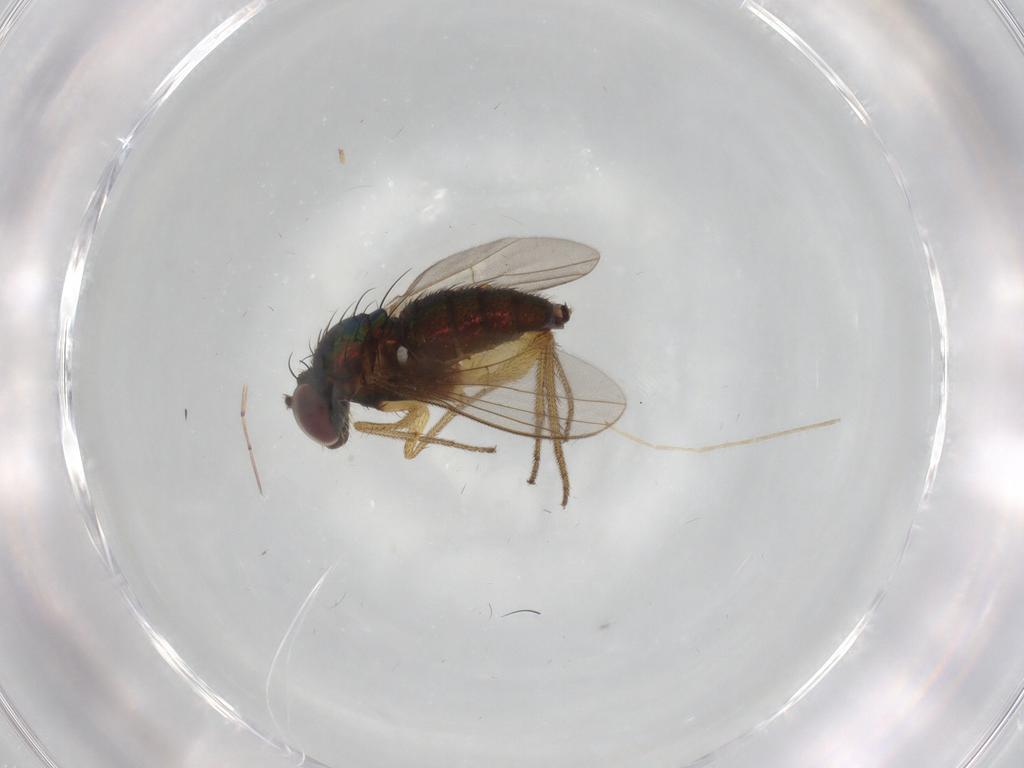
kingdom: Animalia
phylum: Arthropoda
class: Insecta
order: Diptera
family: Dolichopodidae
